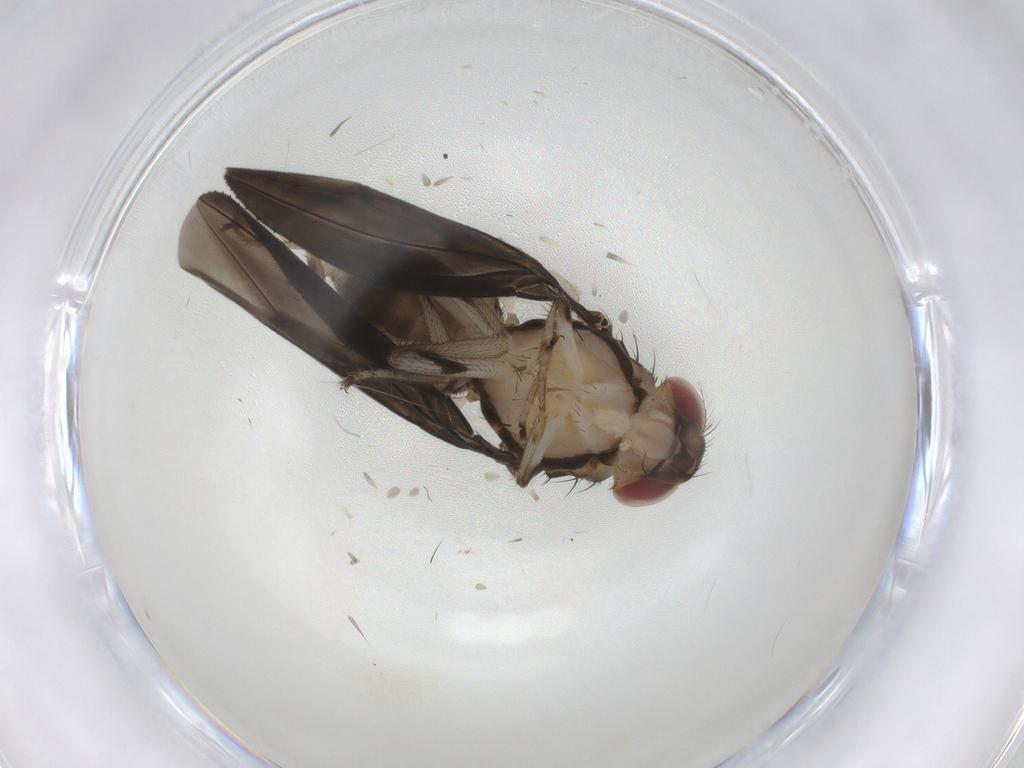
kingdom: Animalia
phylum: Arthropoda
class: Insecta
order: Diptera
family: Drosophilidae
